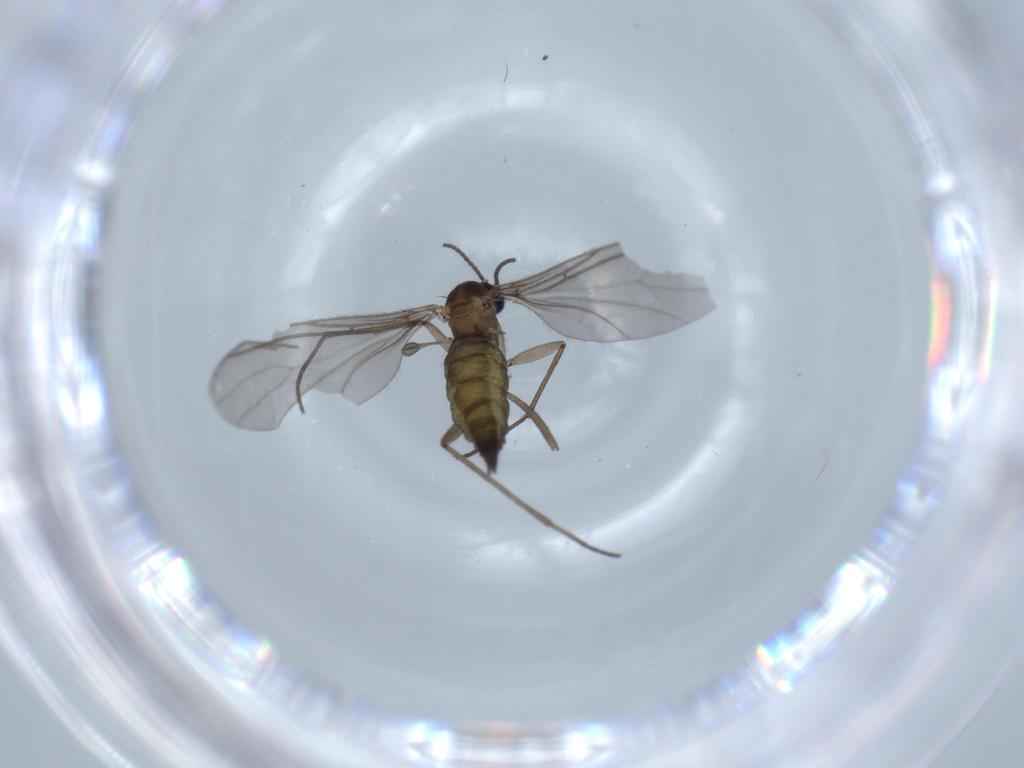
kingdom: Animalia
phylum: Arthropoda
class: Insecta
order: Diptera
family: Sciaridae
